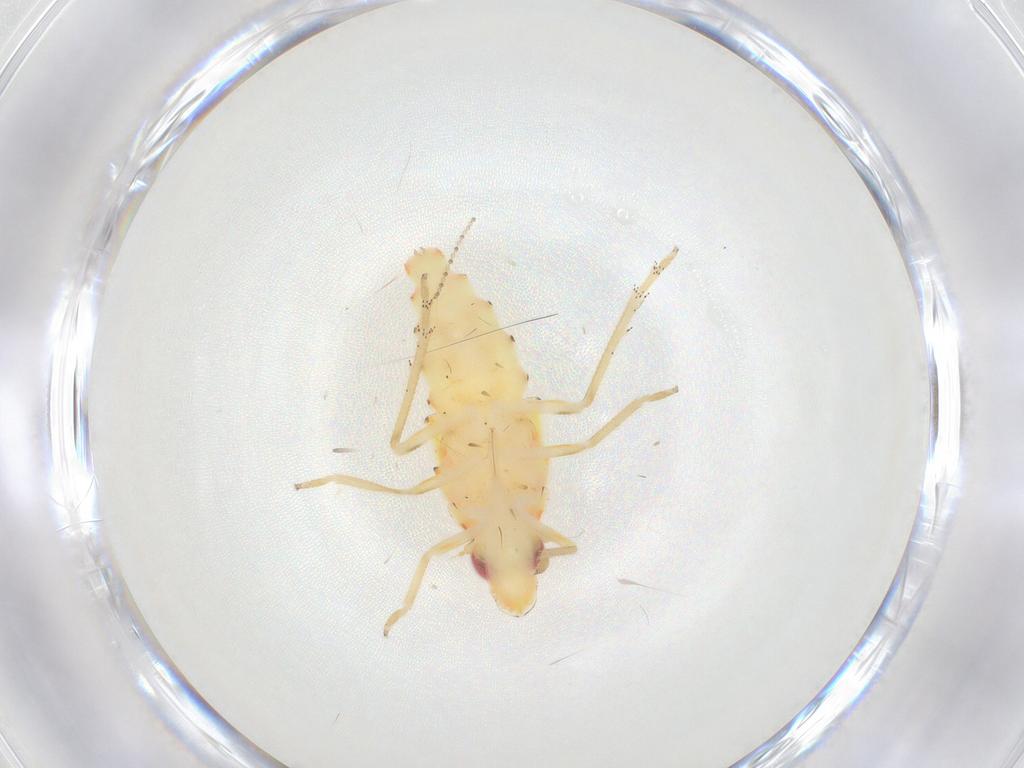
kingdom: Animalia
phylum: Arthropoda
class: Insecta
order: Hemiptera
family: Tropiduchidae
